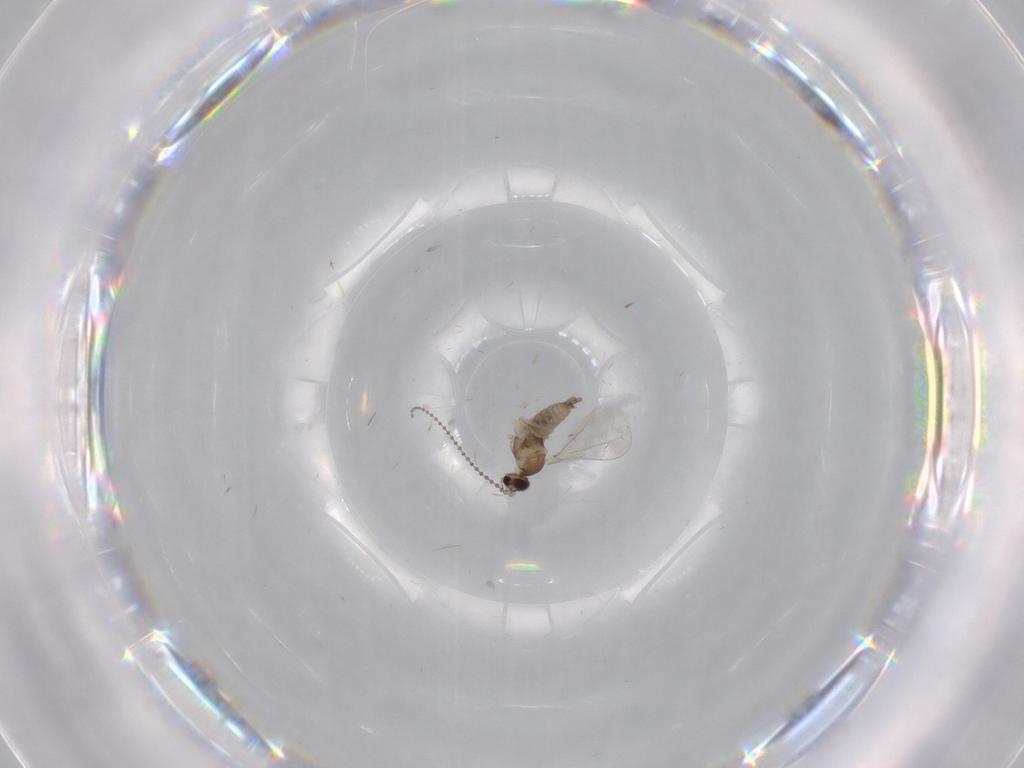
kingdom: Animalia
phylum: Arthropoda
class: Insecta
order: Diptera
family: Cecidomyiidae
